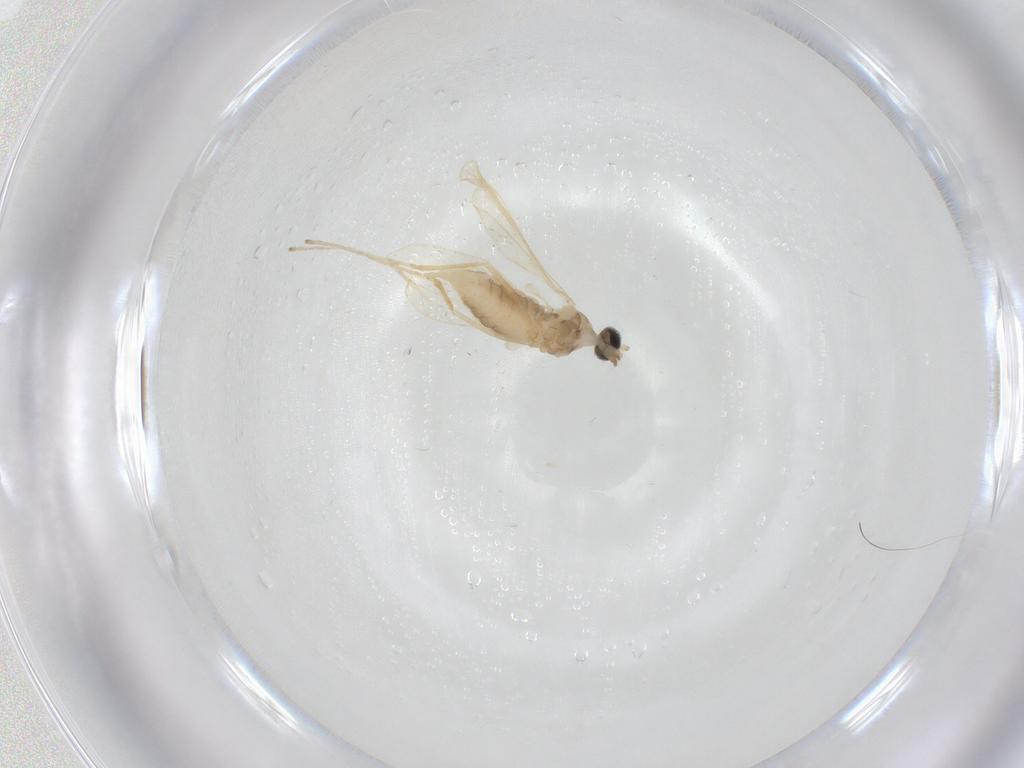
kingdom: Animalia
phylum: Arthropoda
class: Insecta
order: Diptera
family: Cecidomyiidae
